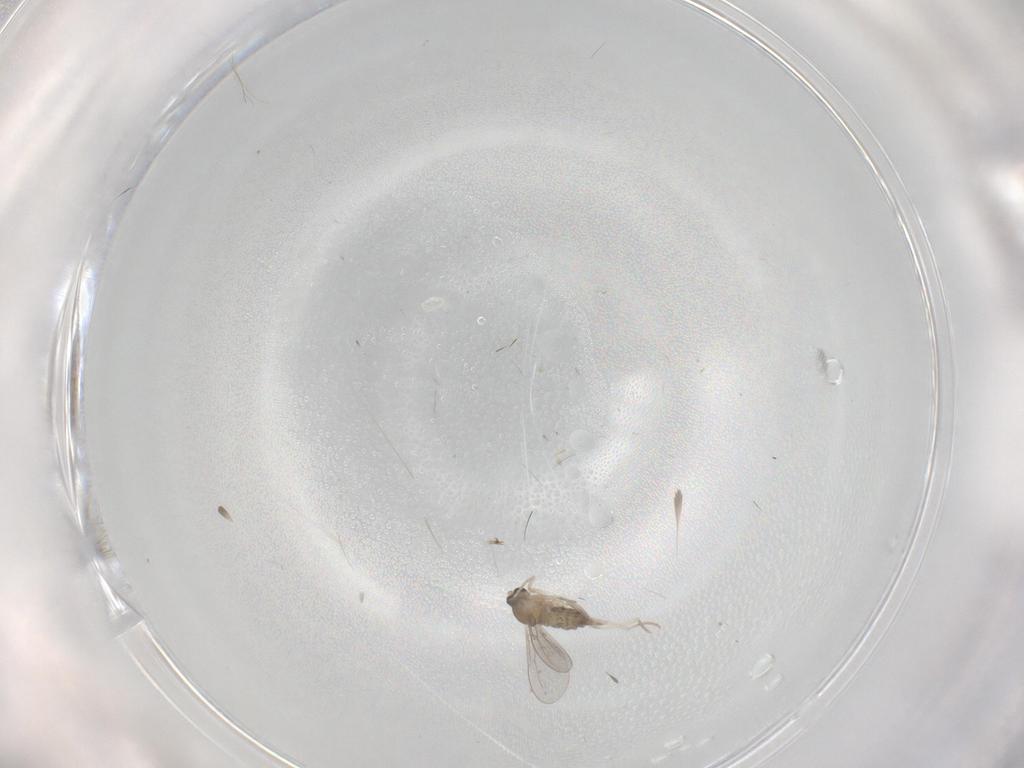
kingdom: Animalia
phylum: Arthropoda
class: Insecta
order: Diptera
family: Cecidomyiidae
